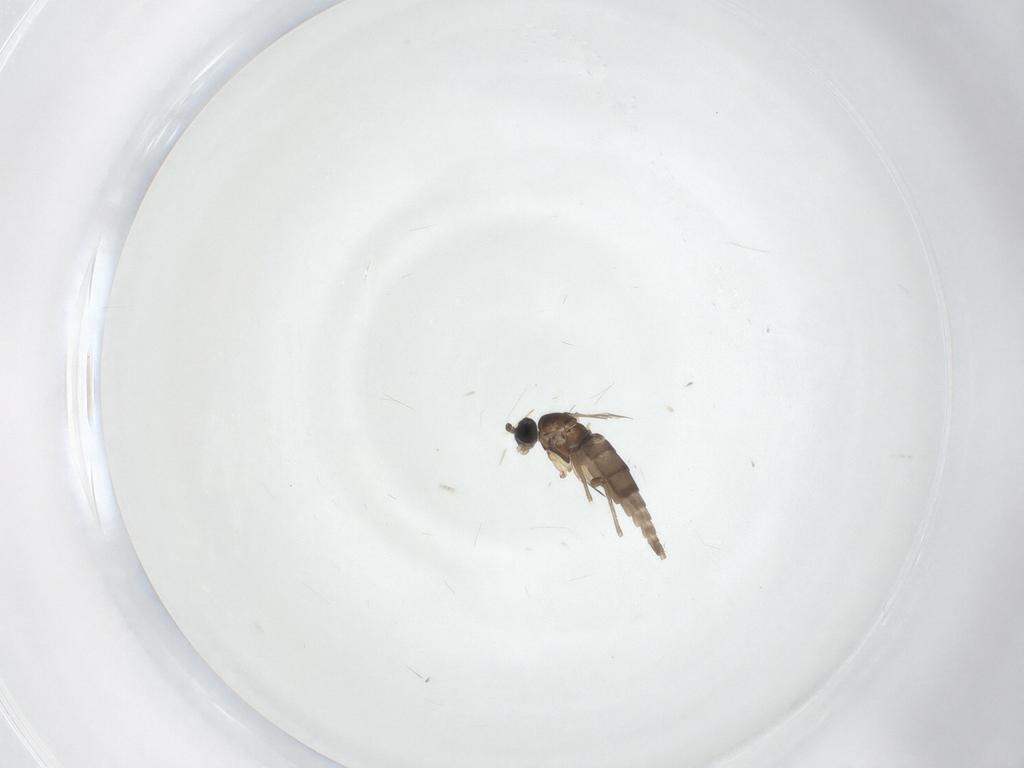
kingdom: Animalia
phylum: Arthropoda
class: Insecta
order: Diptera
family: Sciaridae
